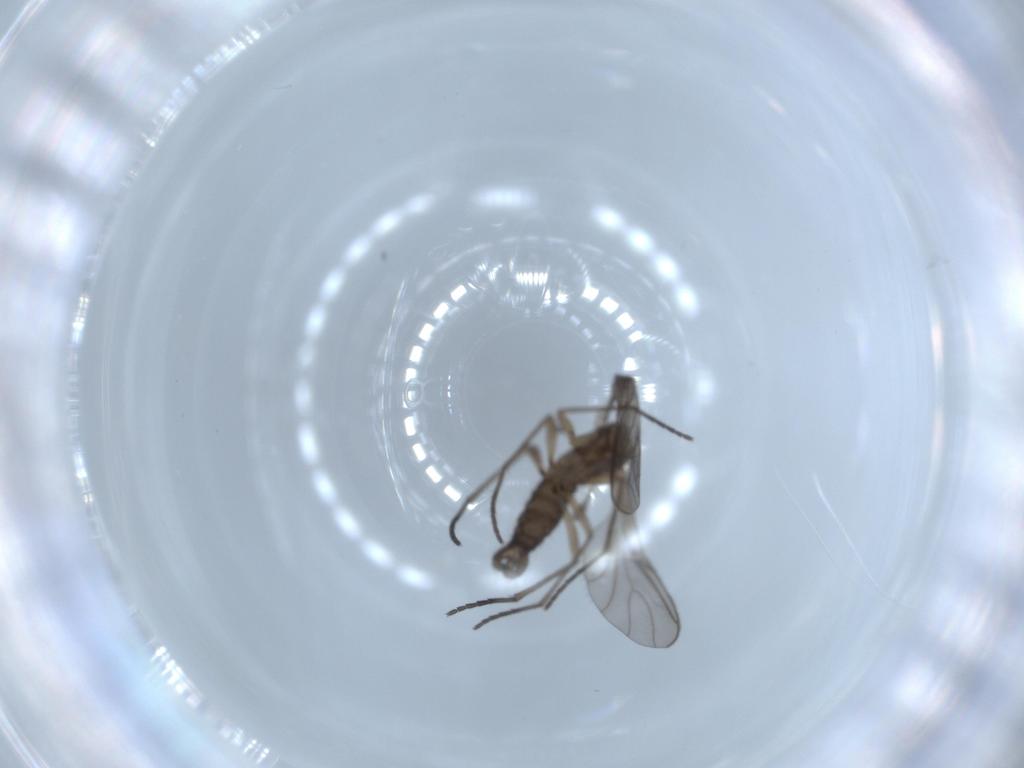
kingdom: Animalia
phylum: Arthropoda
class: Insecta
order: Diptera
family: Sciaridae
